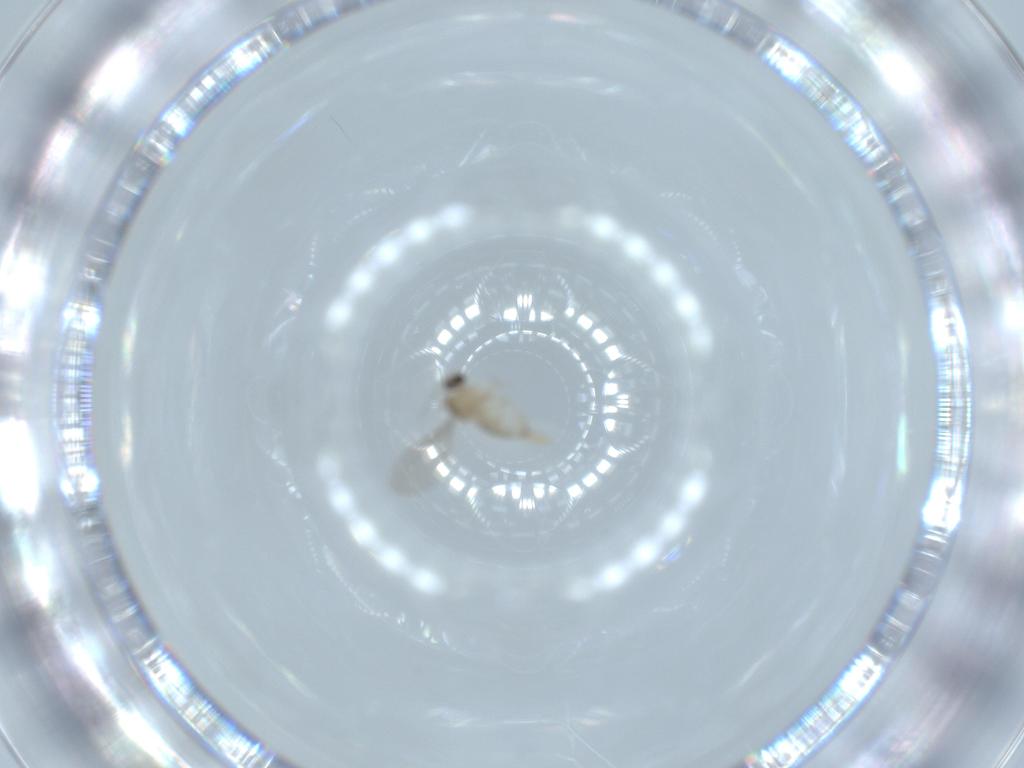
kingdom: Animalia
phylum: Arthropoda
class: Insecta
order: Diptera
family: Cecidomyiidae
